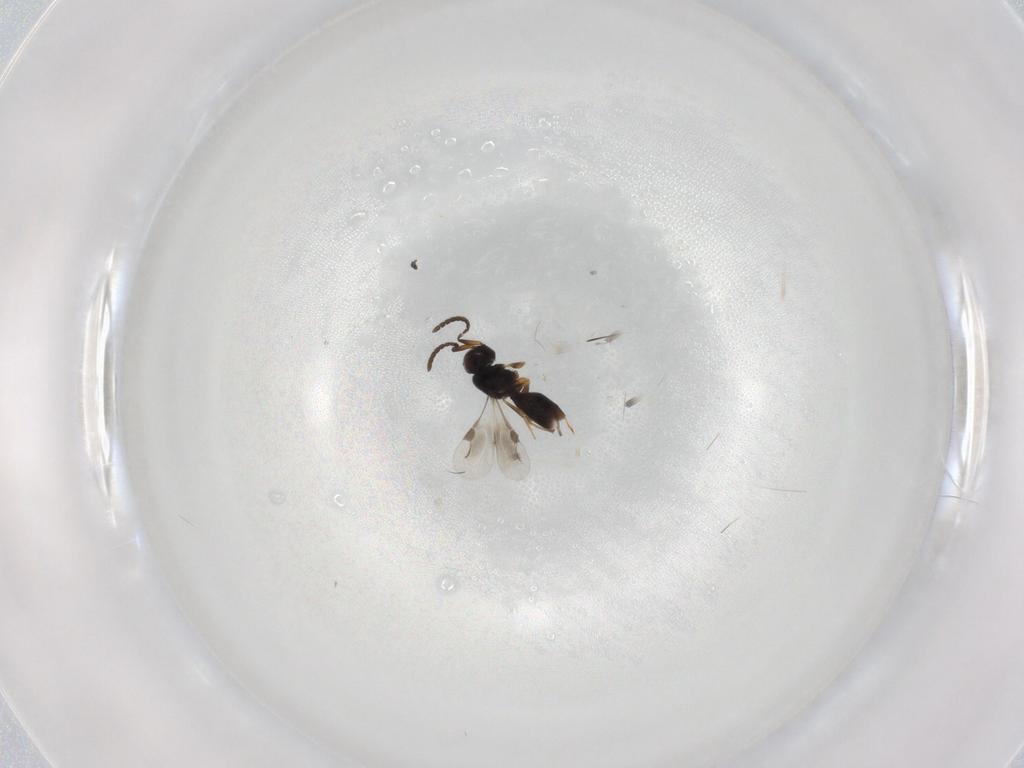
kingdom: Animalia
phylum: Arthropoda
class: Insecta
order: Hymenoptera
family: Megaspilidae
